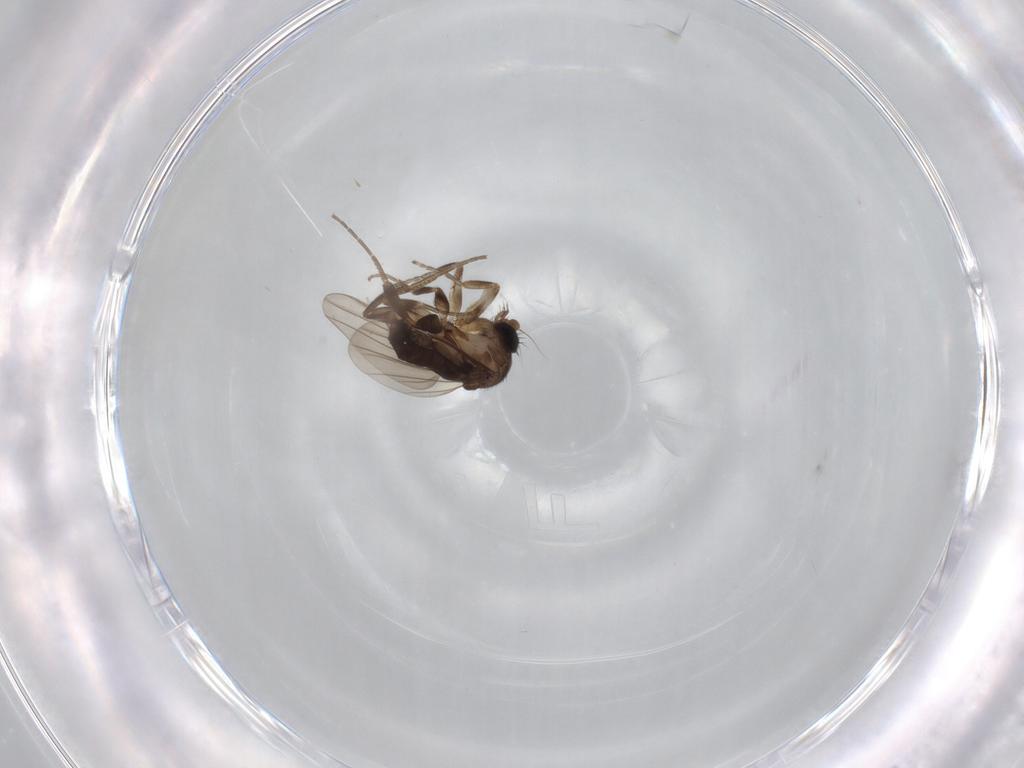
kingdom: Animalia
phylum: Arthropoda
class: Insecta
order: Diptera
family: Phoridae
